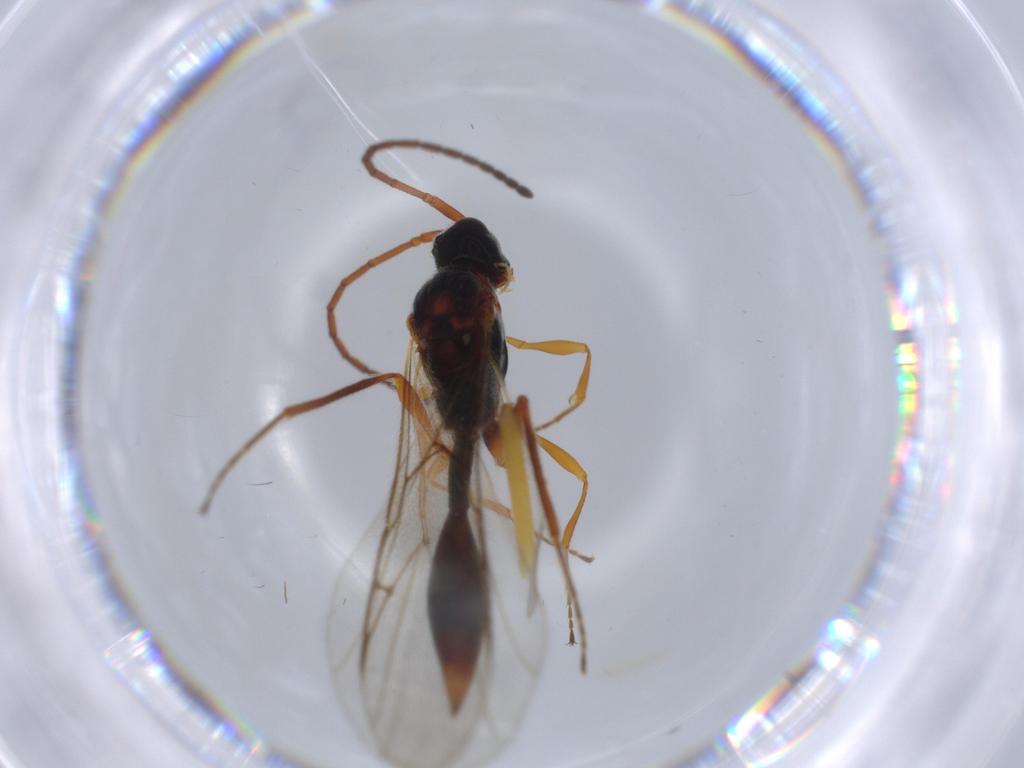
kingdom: Animalia
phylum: Arthropoda
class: Insecta
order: Hymenoptera
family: Diapriidae
